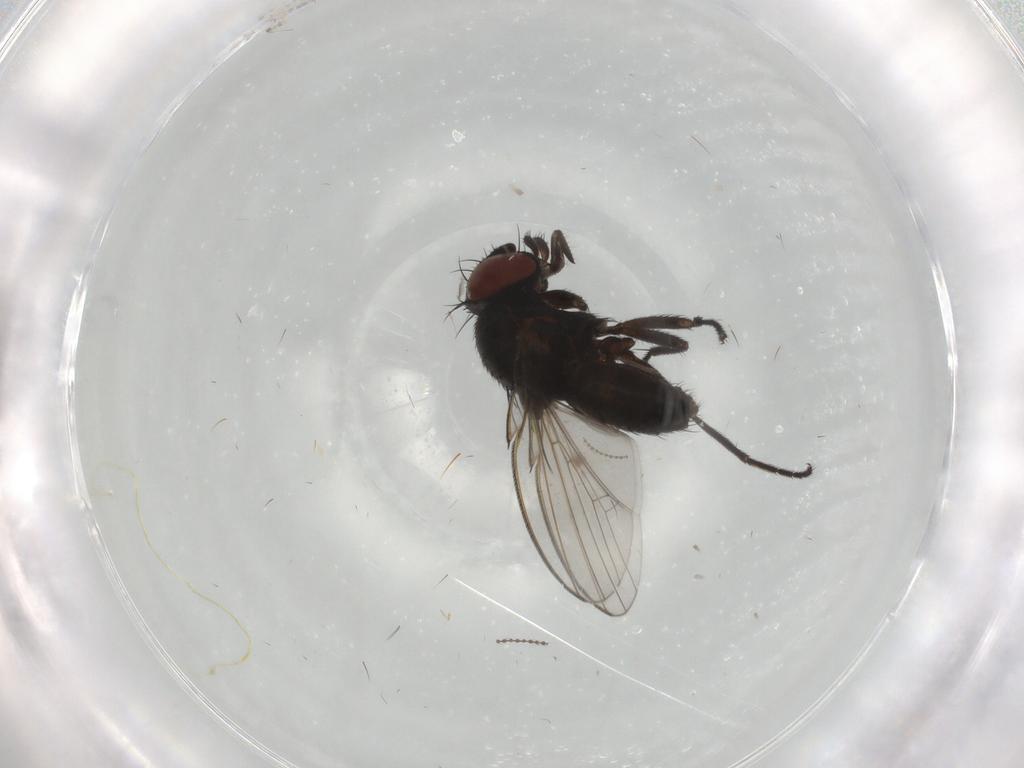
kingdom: Animalia
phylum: Arthropoda
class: Insecta
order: Diptera
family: Milichiidae
